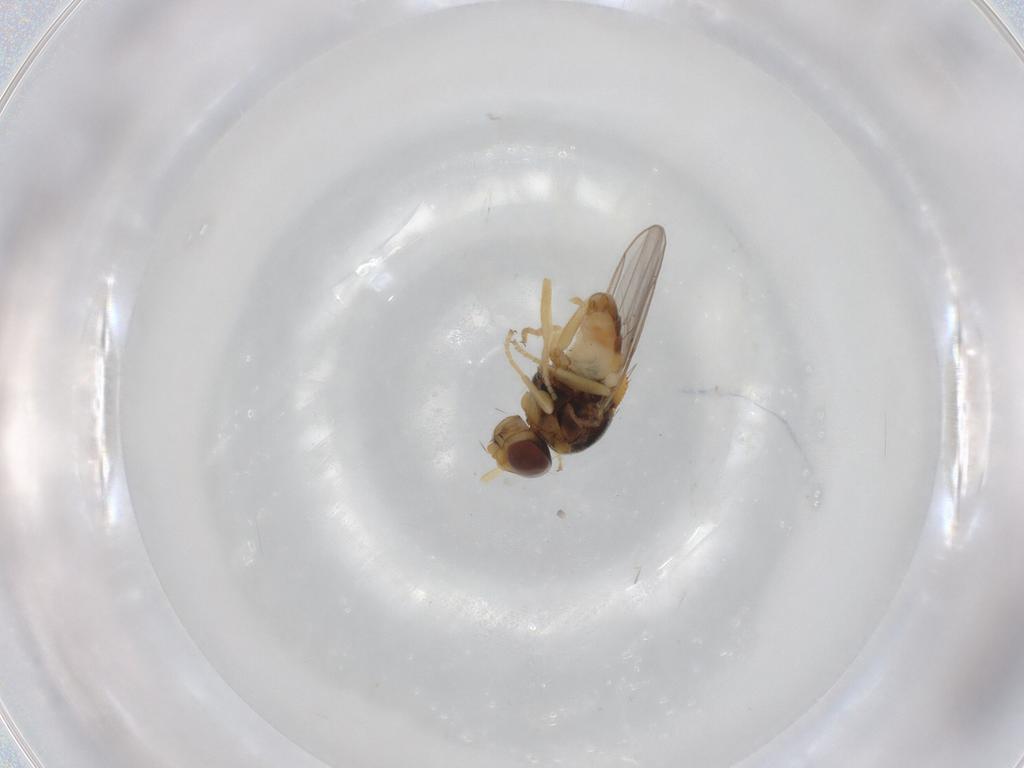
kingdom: Animalia
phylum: Arthropoda
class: Insecta
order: Diptera
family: Chloropidae
